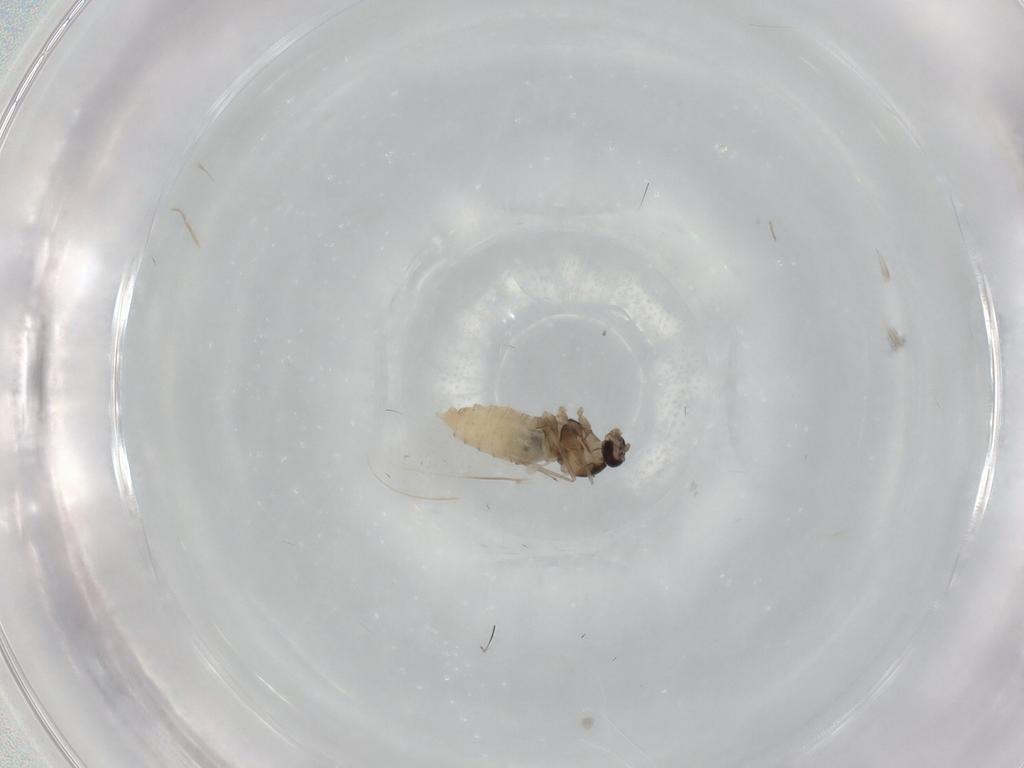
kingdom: Animalia
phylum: Arthropoda
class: Insecta
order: Diptera
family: Cecidomyiidae
